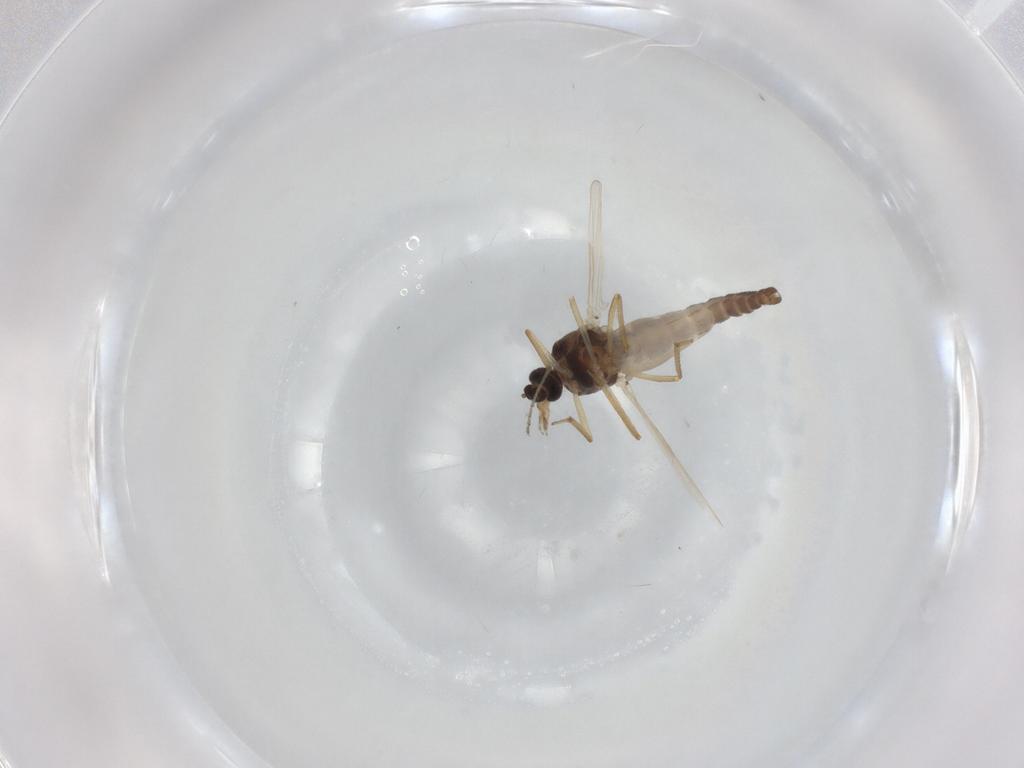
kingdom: Animalia
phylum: Arthropoda
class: Insecta
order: Diptera
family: Ceratopogonidae
